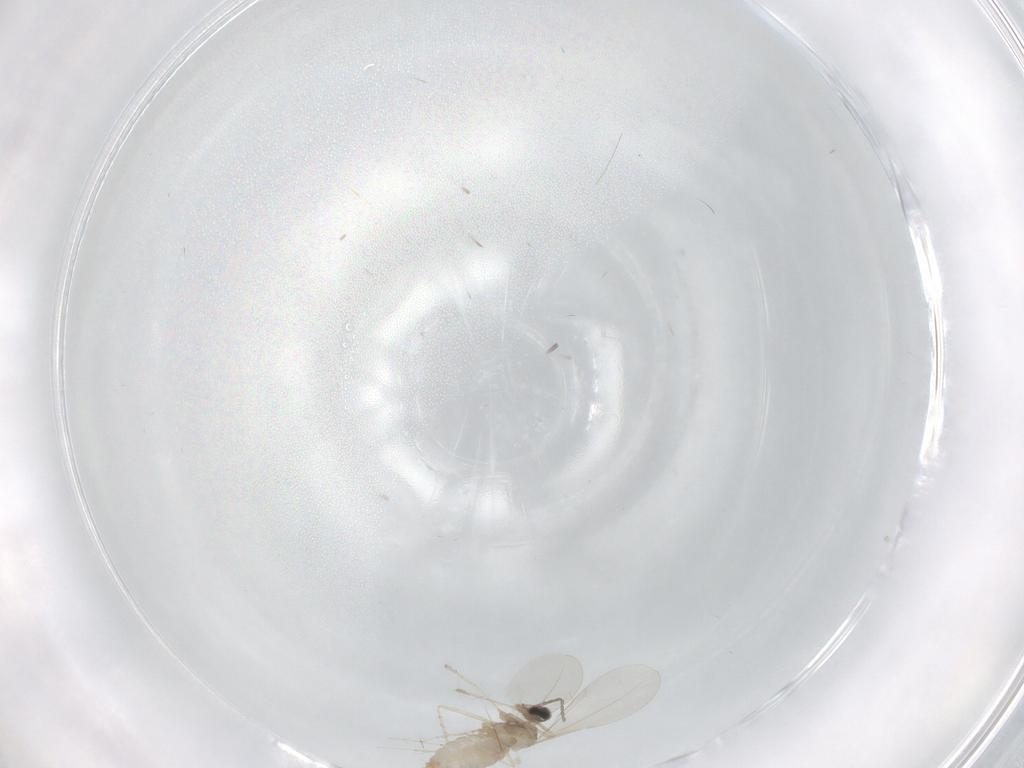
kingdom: Animalia
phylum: Arthropoda
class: Insecta
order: Diptera
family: Cecidomyiidae
